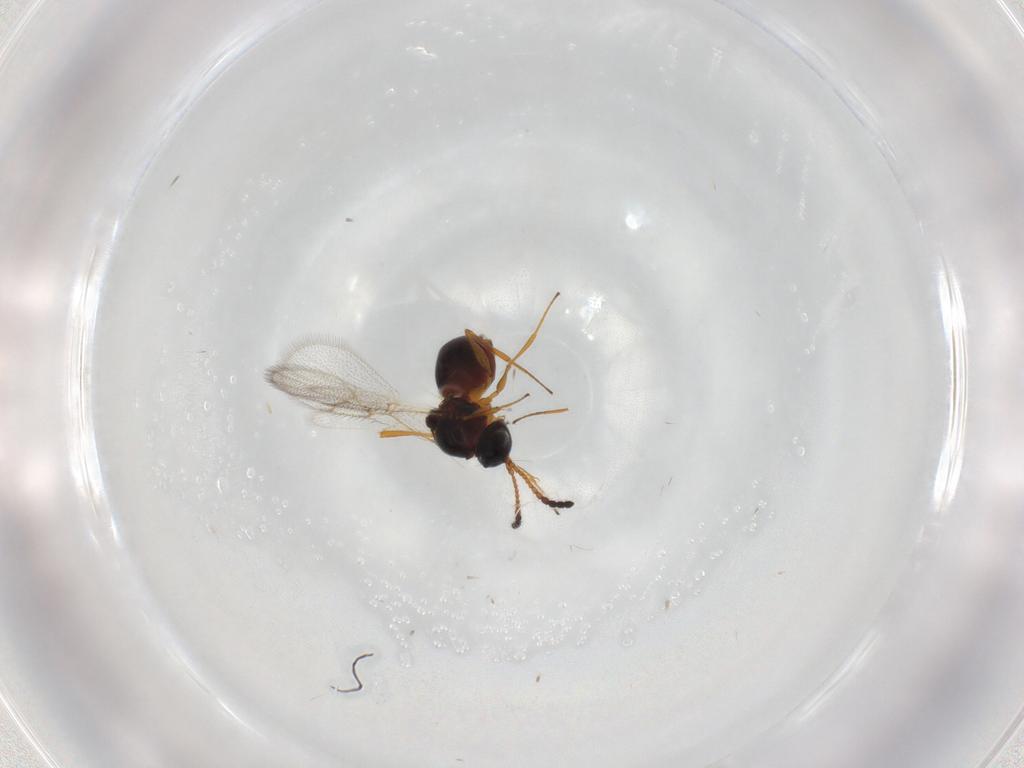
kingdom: Animalia
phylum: Arthropoda
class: Insecta
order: Hymenoptera
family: Figitidae
